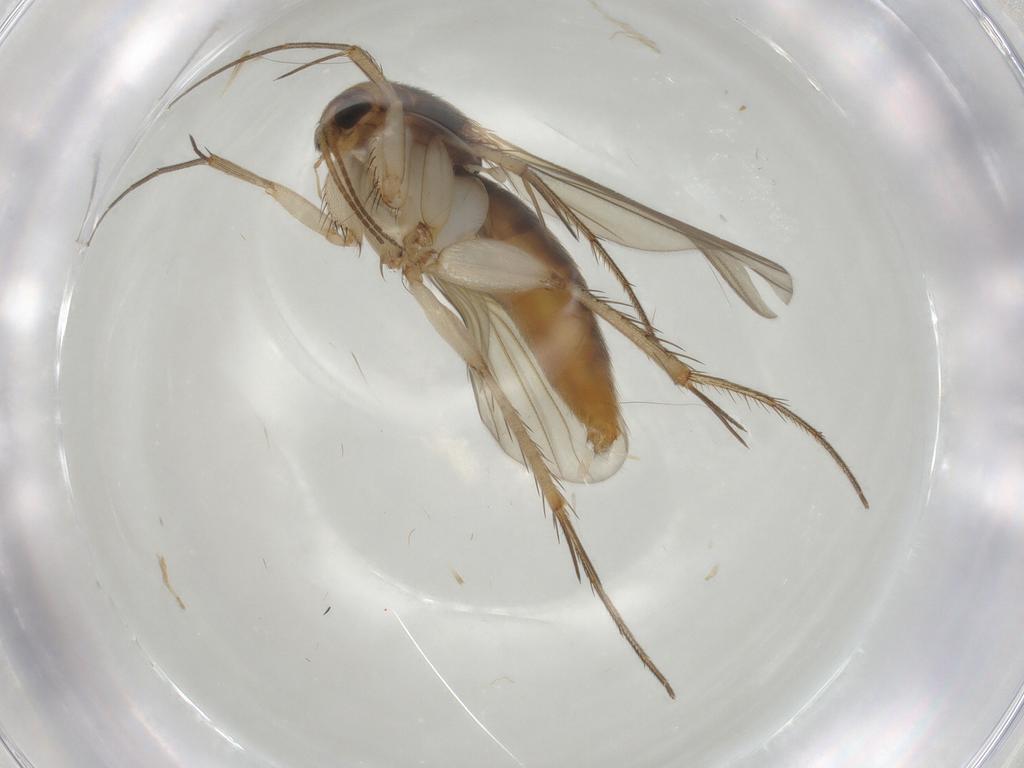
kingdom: Animalia
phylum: Arthropoda
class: Insecta
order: Diptera
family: Mycetophilidae
